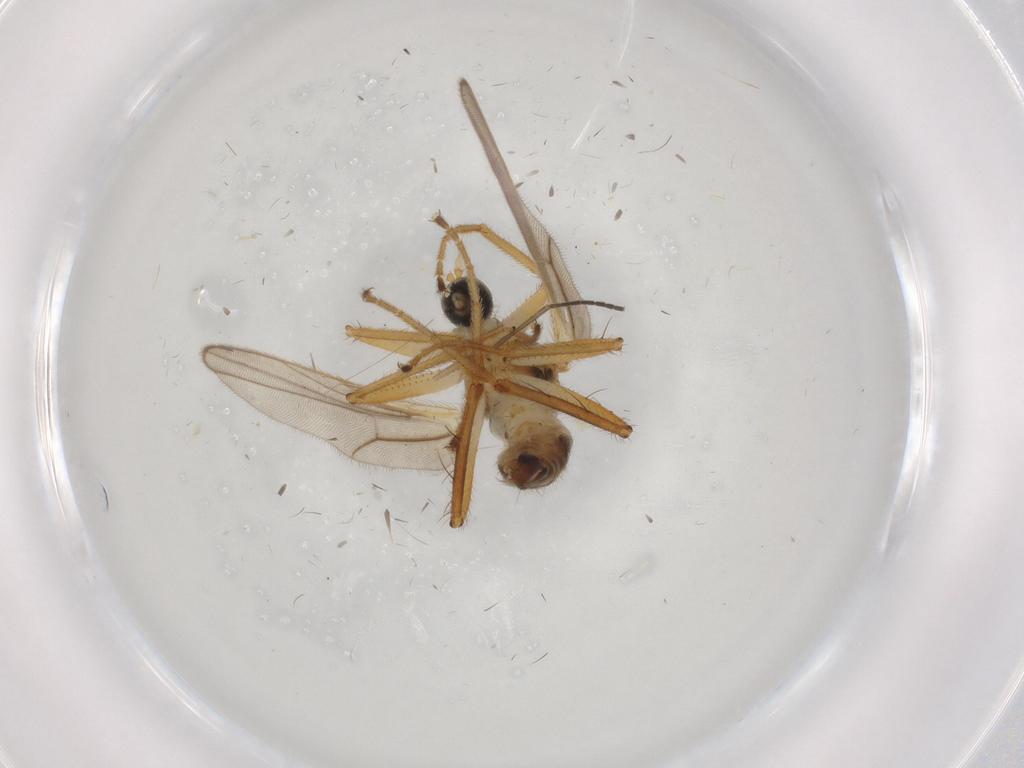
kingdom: Animalia
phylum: Arthropoda
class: Insecta
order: Diptera
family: Hybotidae
